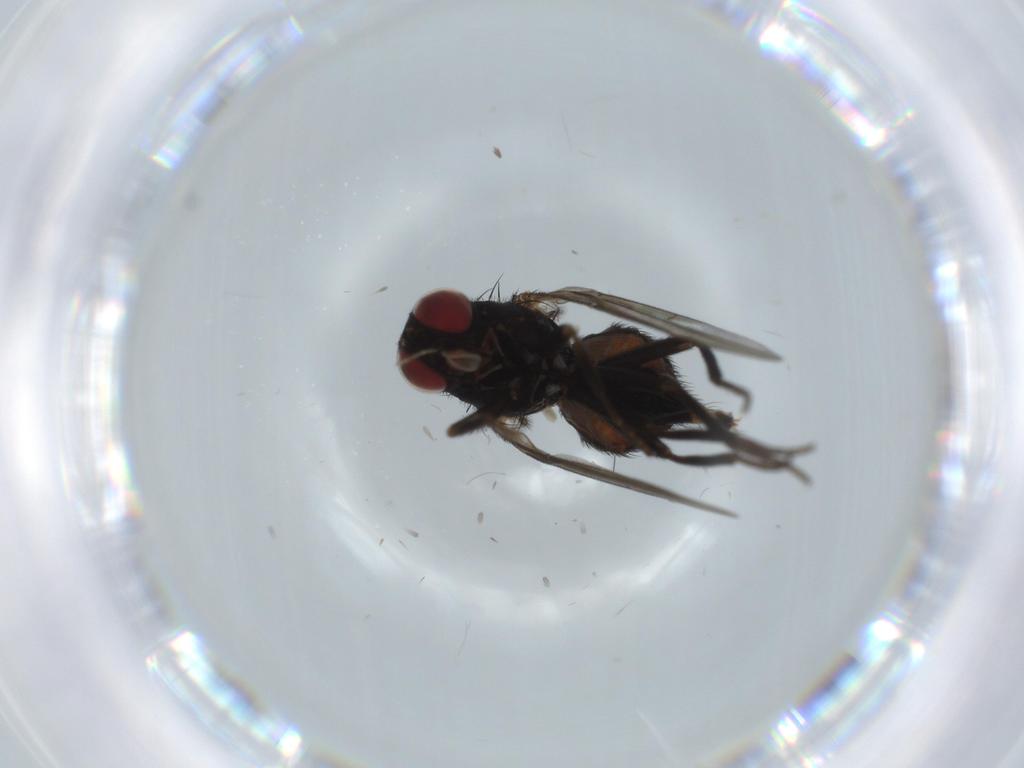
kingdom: Animalia
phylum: Arthropoda
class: Insecta
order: Diptera
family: Agromyzidae
